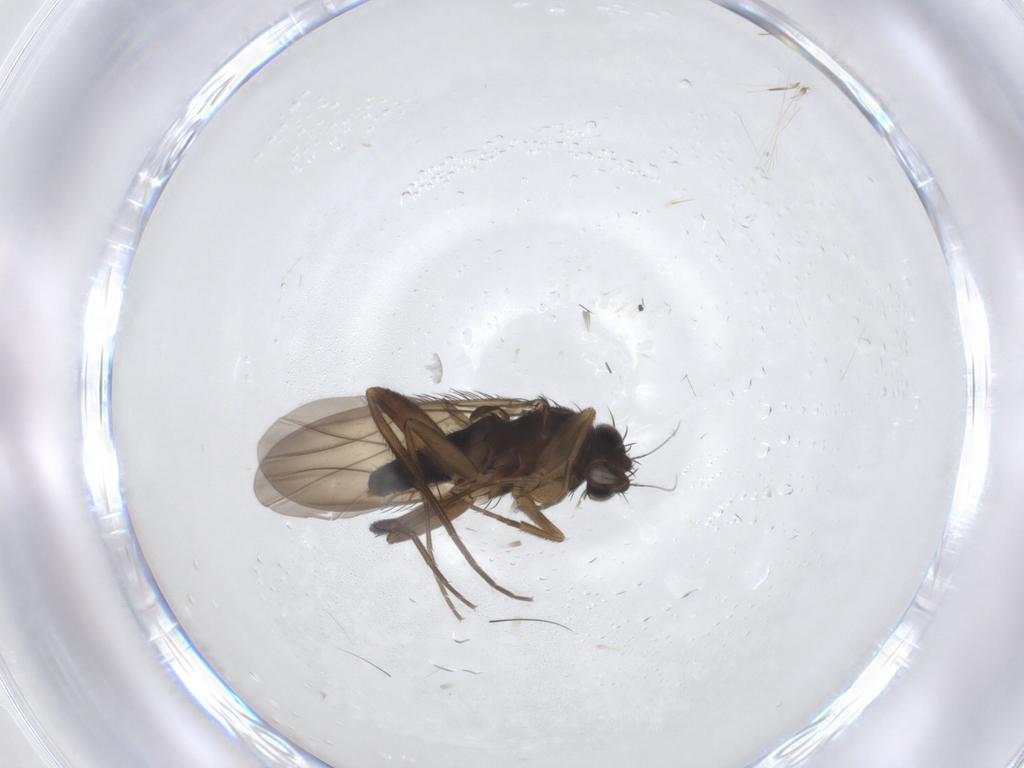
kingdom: Animalia
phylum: Arthropoda
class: Insecta
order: Diptera
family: Phoridae
